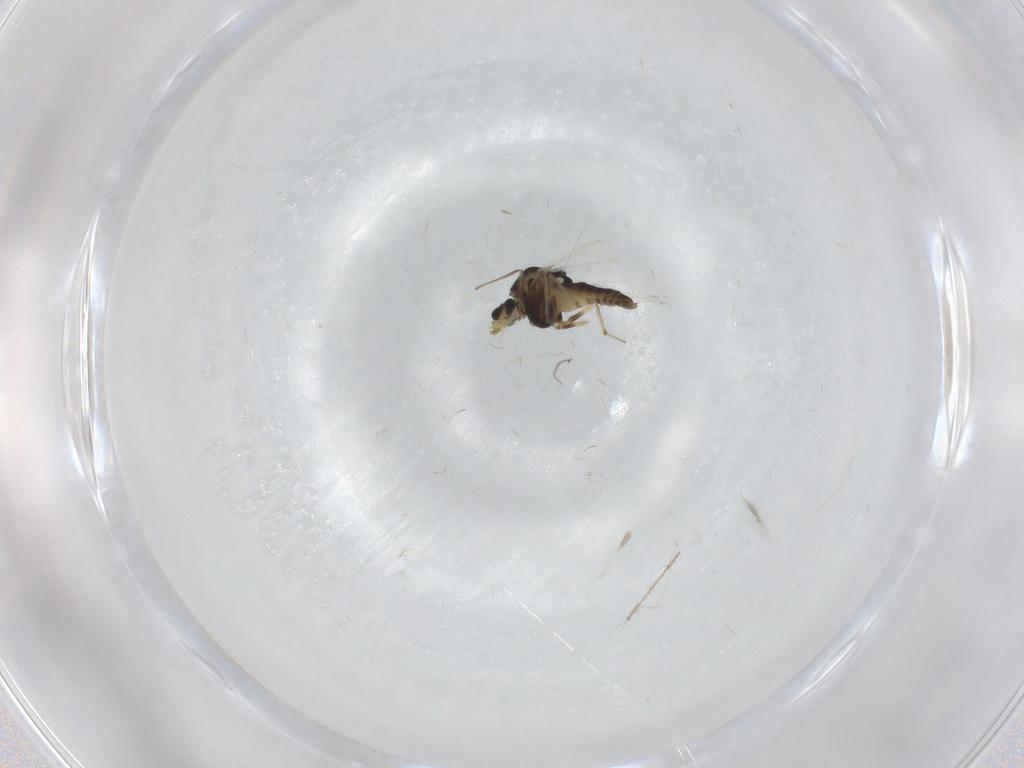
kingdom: Animalia
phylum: Arthropoda
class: Insecta
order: Diptera
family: Chironomidae
